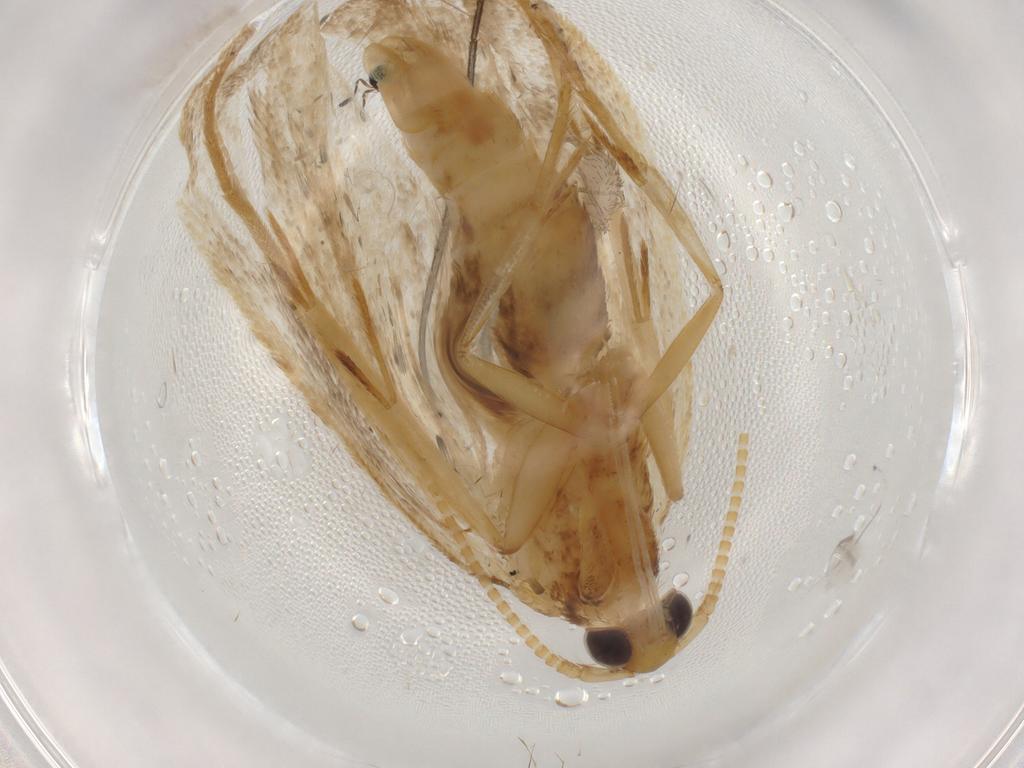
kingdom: Animalia
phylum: Arthropoda
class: Insecta
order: Lepidoptera
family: Lecithoceridae
